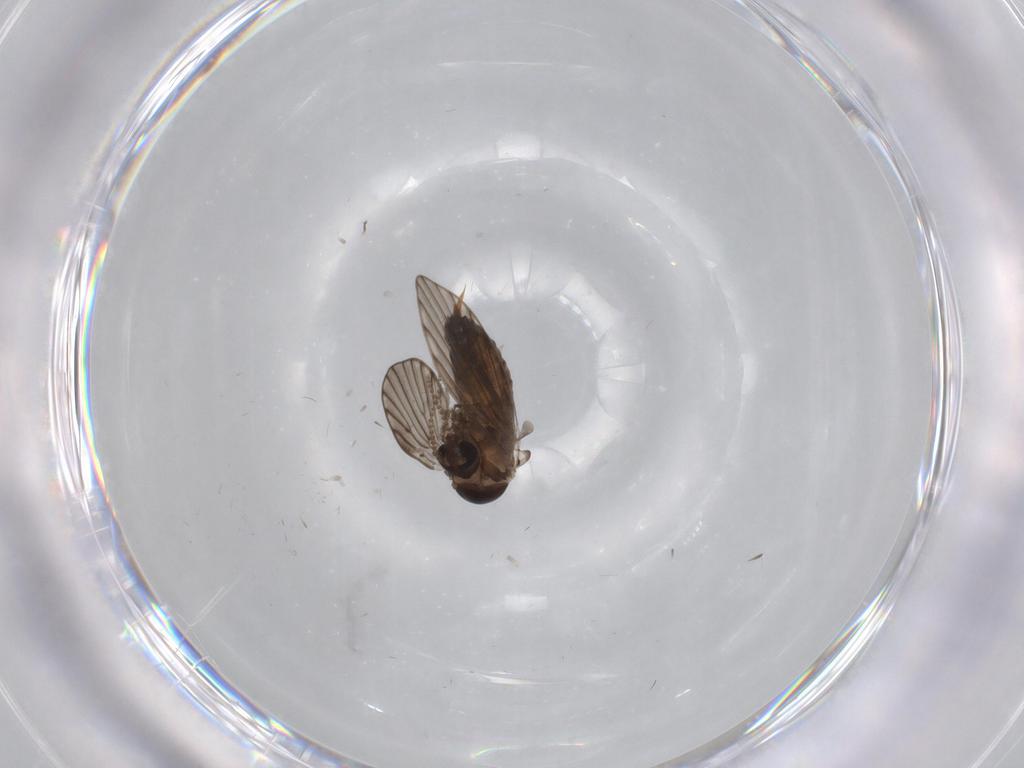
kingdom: Animalia
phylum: Arthropoda
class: Insecta
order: Diptera
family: Psychodidae
